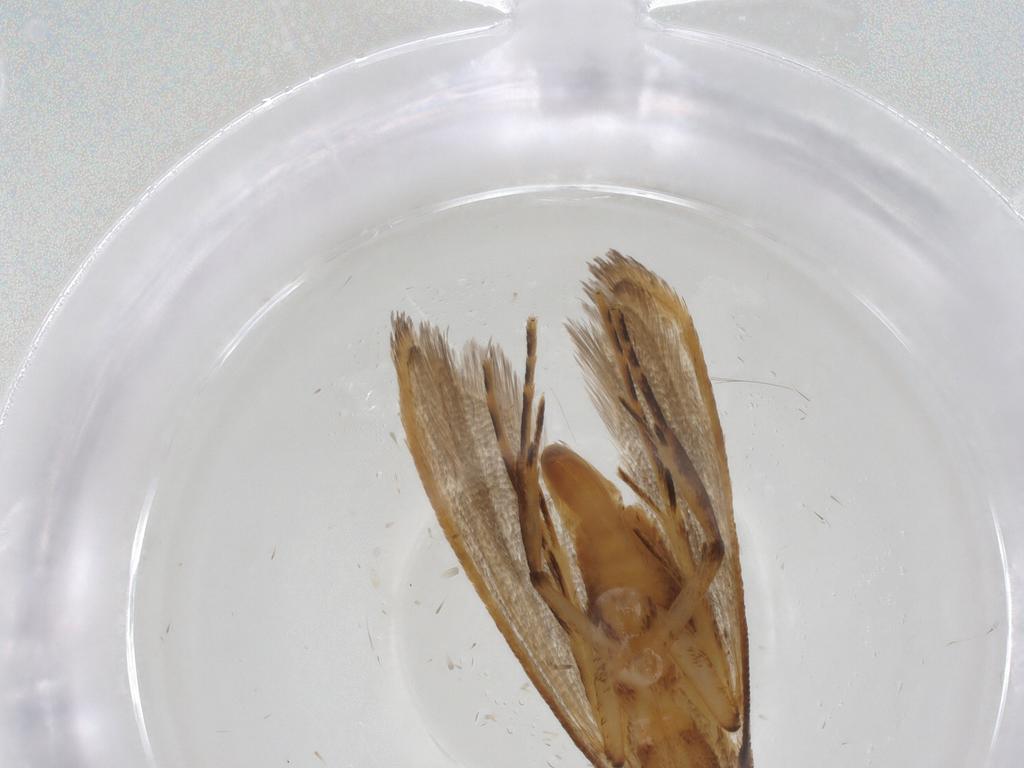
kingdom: Animalia
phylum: Arthropoda
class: Insecta
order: Lepidoptera
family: Lecithoceridae
